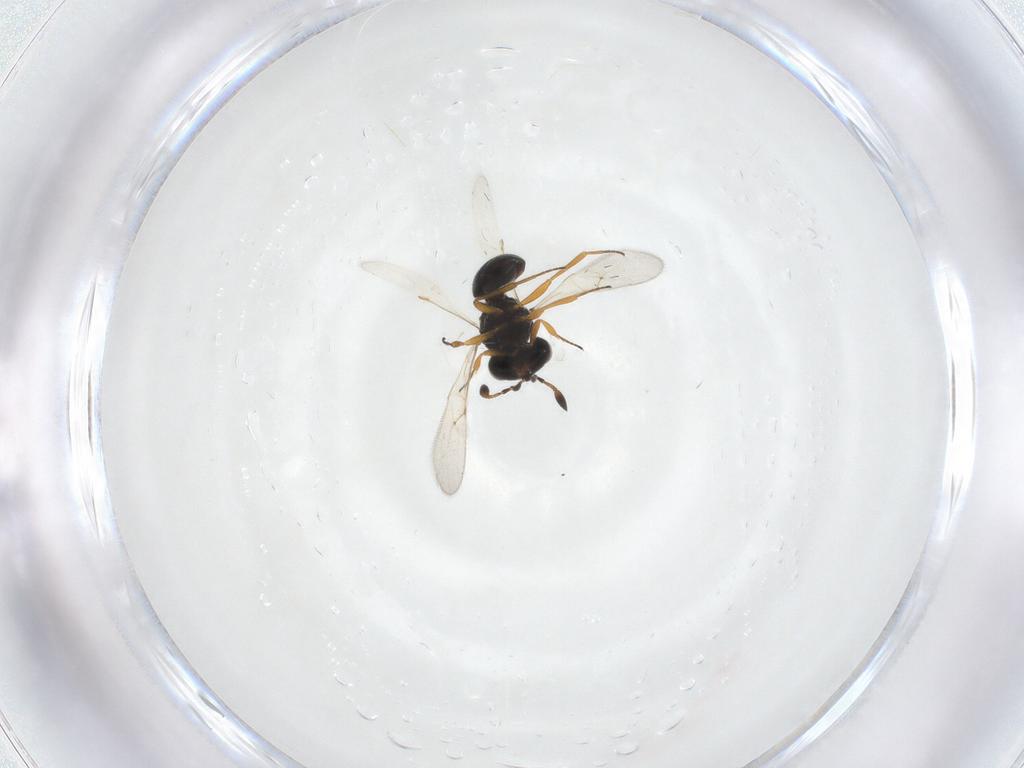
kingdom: Animalia
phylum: Arthropoda
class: Insecta
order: Hymenoptera
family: Scelionidae
